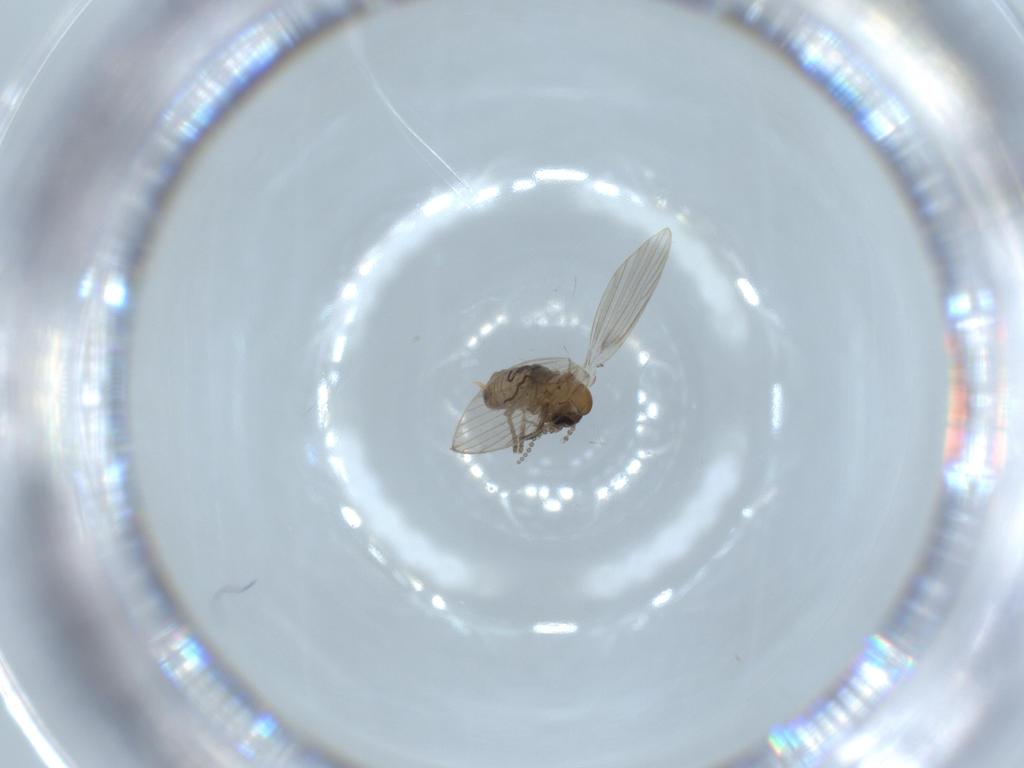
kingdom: Animalia
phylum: Arthropoda
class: Insecta
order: Diptera
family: Psychodidae
